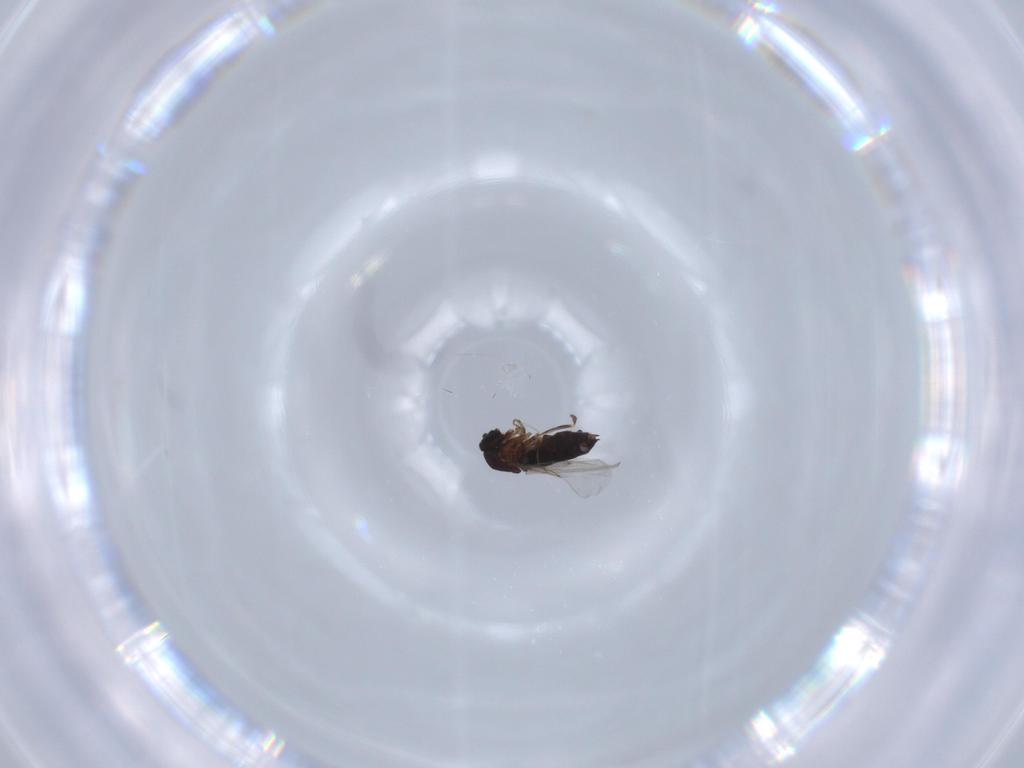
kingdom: Animalia
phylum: Arthropoda
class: Insecta
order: Diptera
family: Scatopsidae
